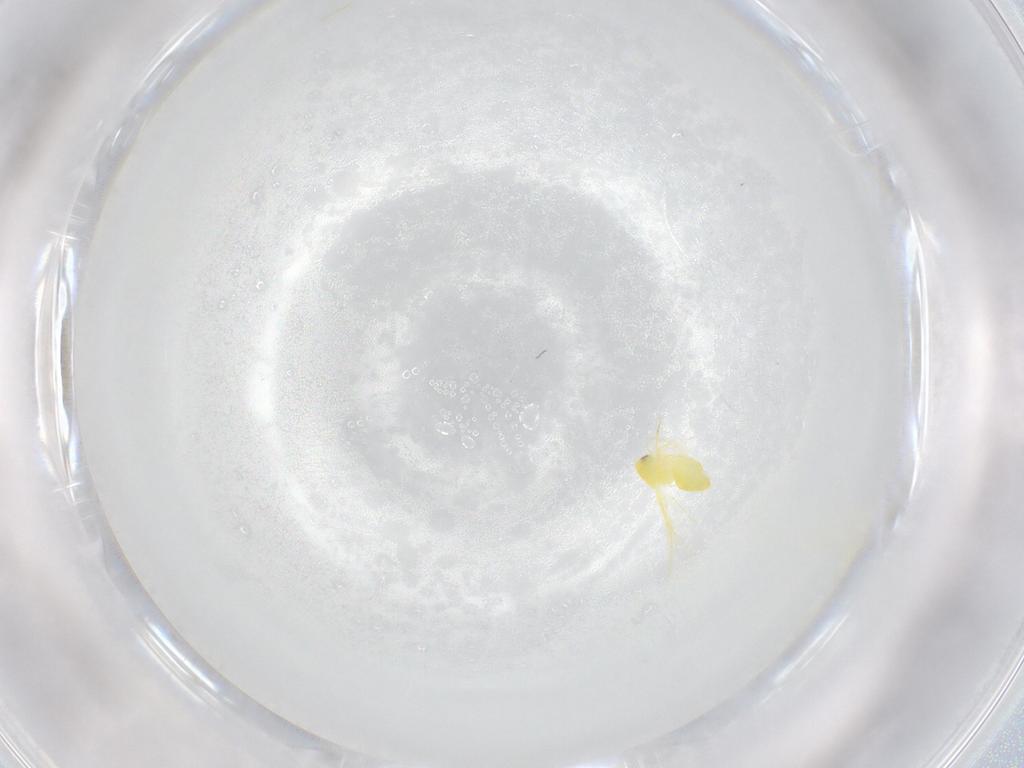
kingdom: Animalia
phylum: Arthropoda
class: Insecta
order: Hemiptera
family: Aleyrodidae
